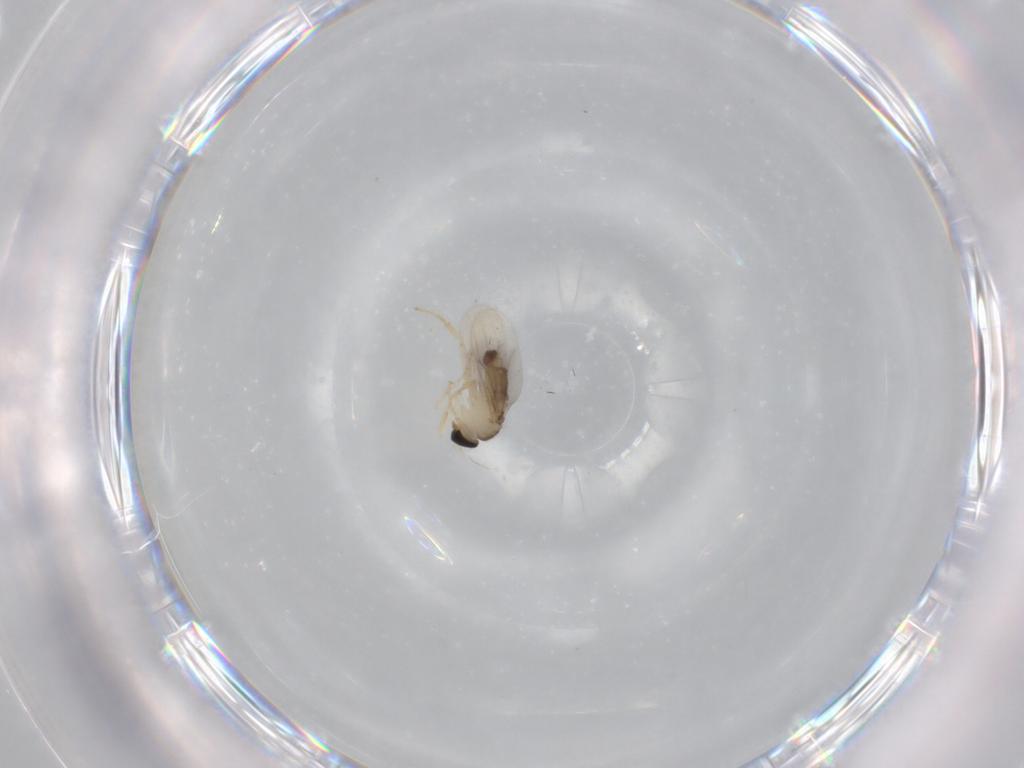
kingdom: Animalia
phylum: Arthropoda
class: Insecta
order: Diptera
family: Hybotidae
